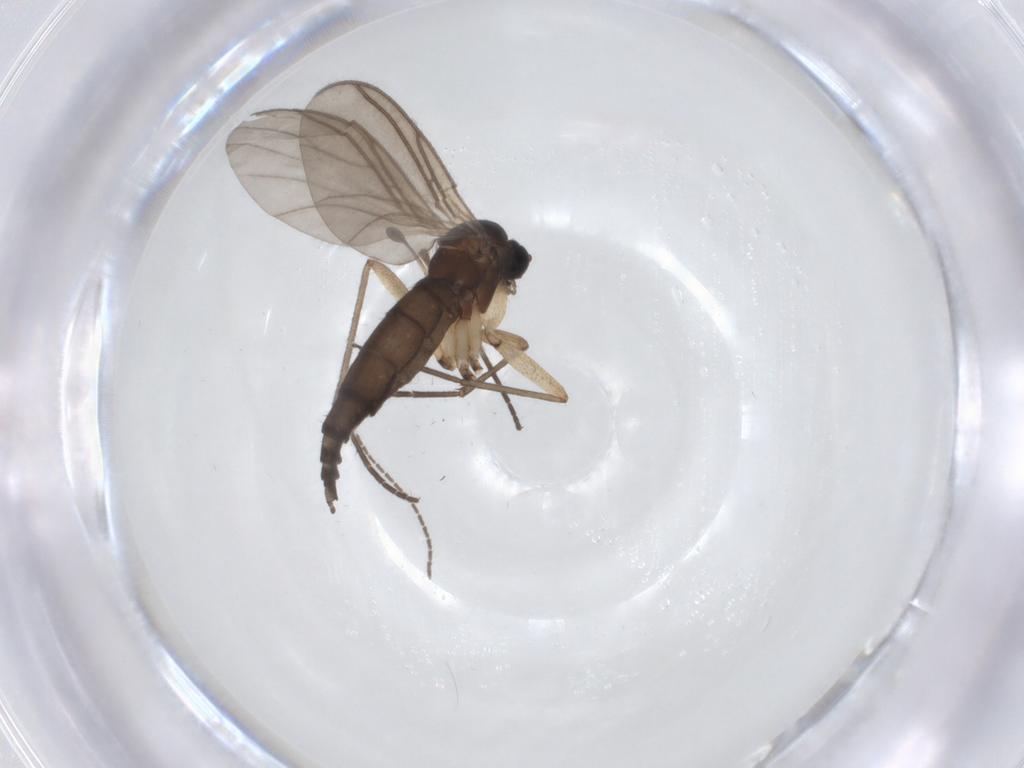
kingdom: Animalia
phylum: Arthropoda
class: Insecta
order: Diptera
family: Sciaridae
